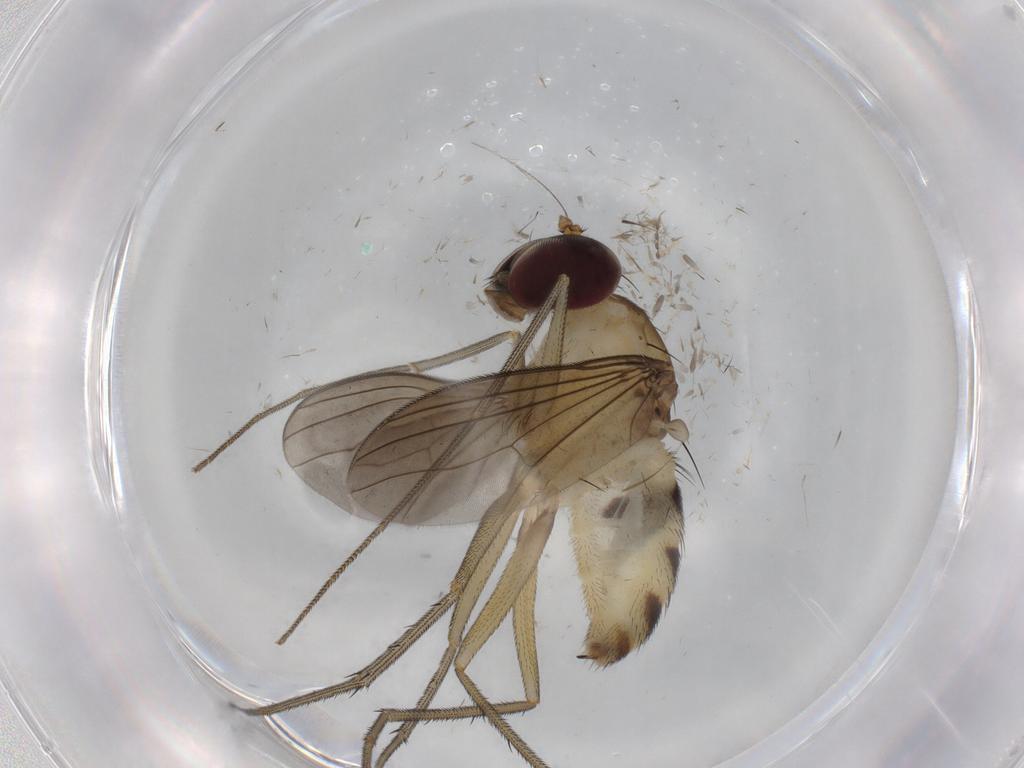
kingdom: Animalia
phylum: Arthropoda
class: Insecta
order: Diptera
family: Dolichopodidae
